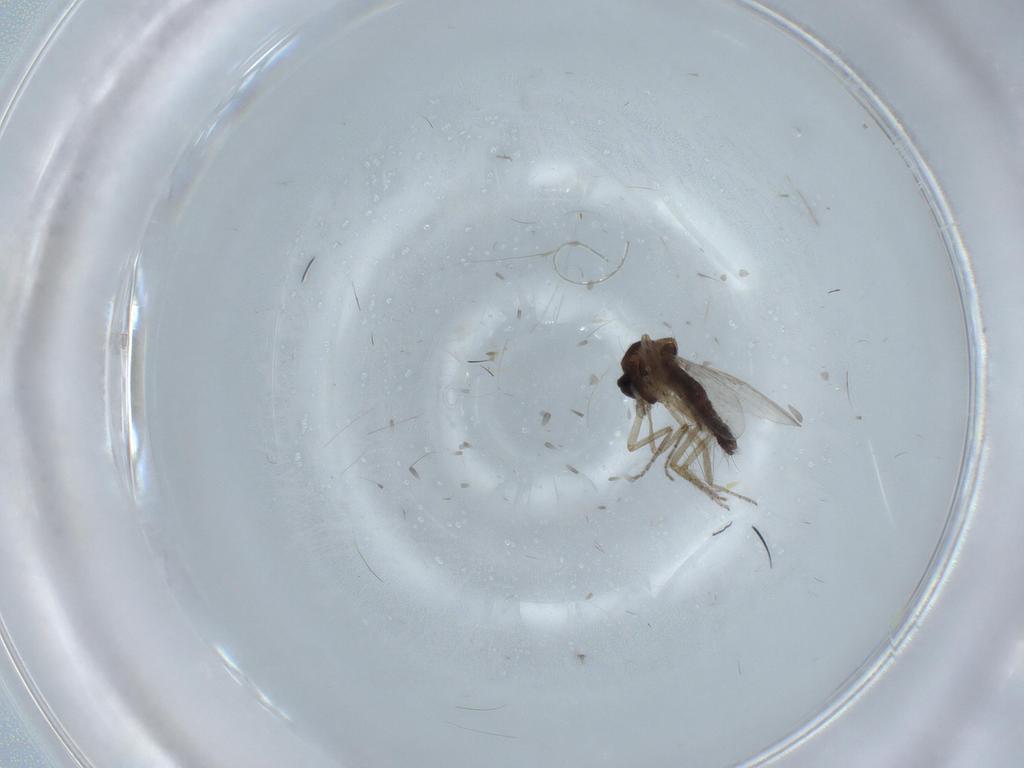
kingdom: Animalia
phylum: Arthropoda
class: Insecta
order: Diptera
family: Ceratopogonidae
